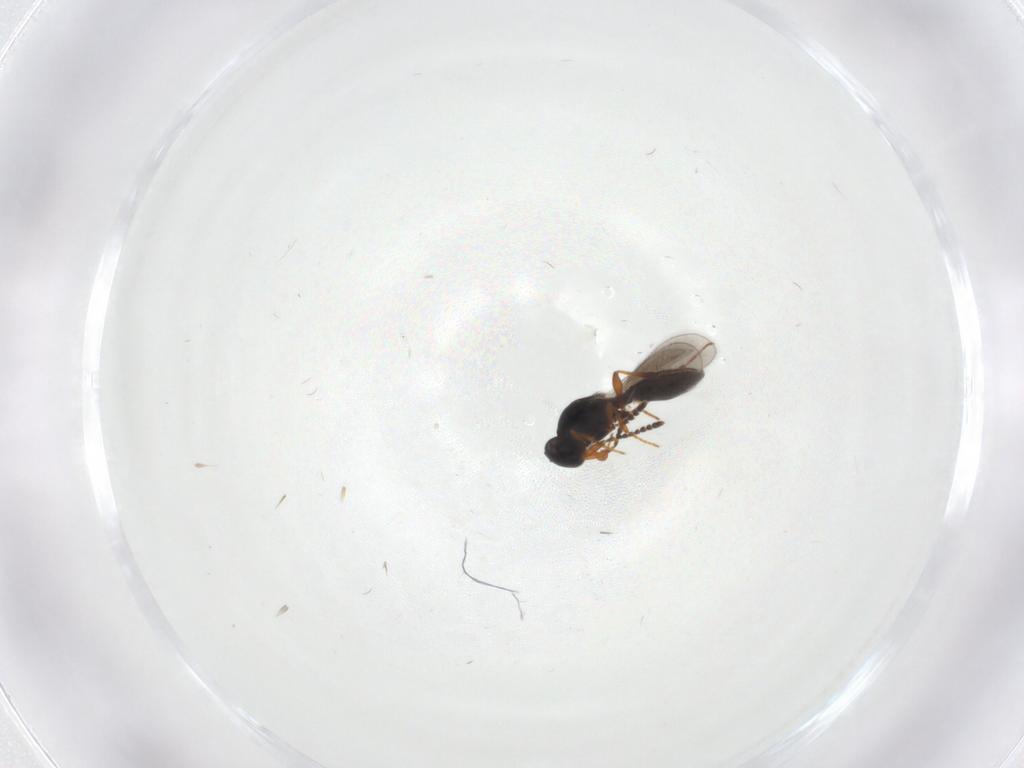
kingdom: Animalia
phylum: Arthropoda
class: Insecta
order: Hymenoptera
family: Platygastridae
